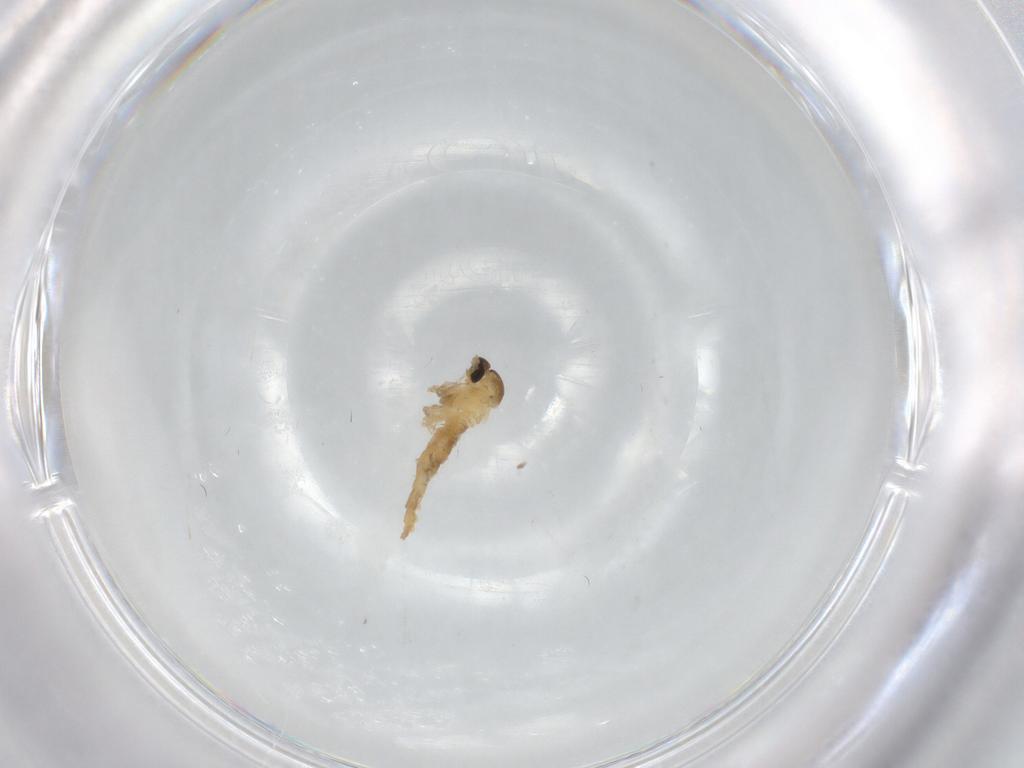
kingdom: Animalia
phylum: Arthropoda
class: Insecta
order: Diptera
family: Cecidomyiidae
